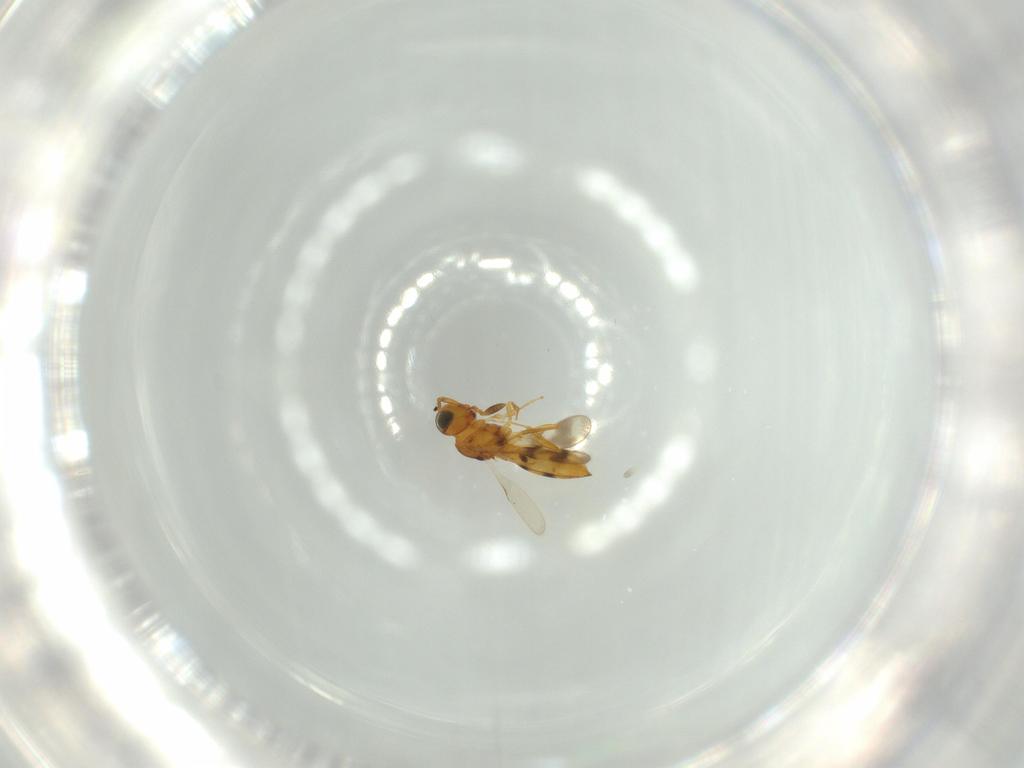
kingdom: Animalia
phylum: Arthropoda
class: Insecta
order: Hymenoptera
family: Scelionidae
